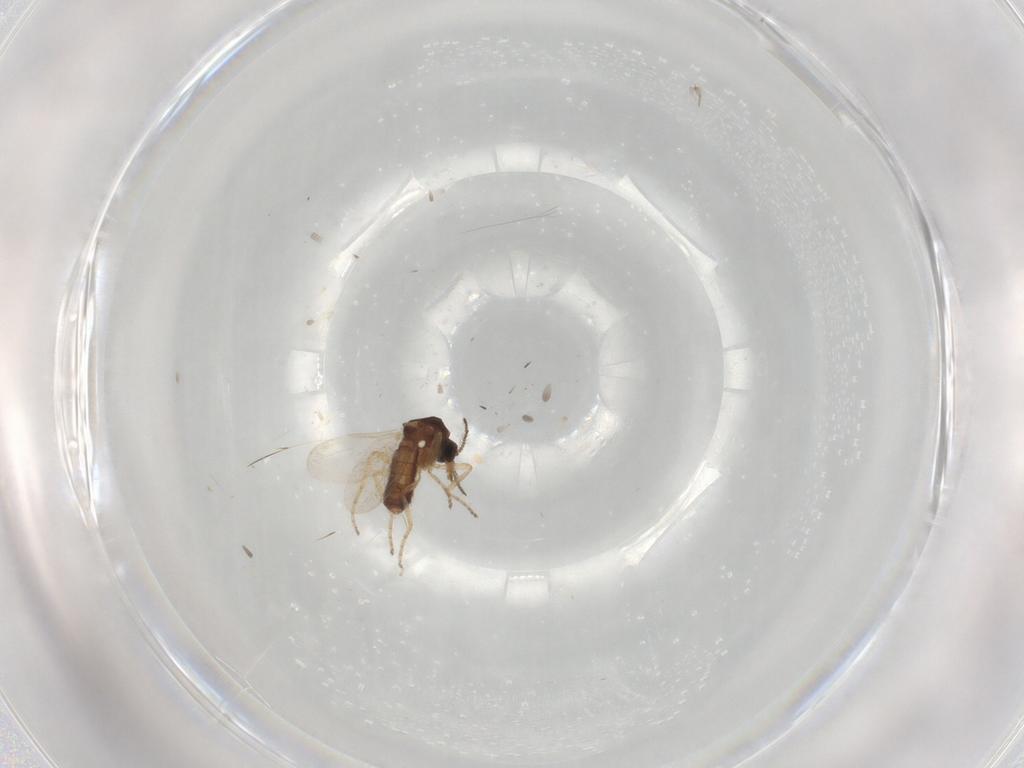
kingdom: Animalia
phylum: Arthropoda
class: Insecta
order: Diptera
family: Ceratopogonidae
